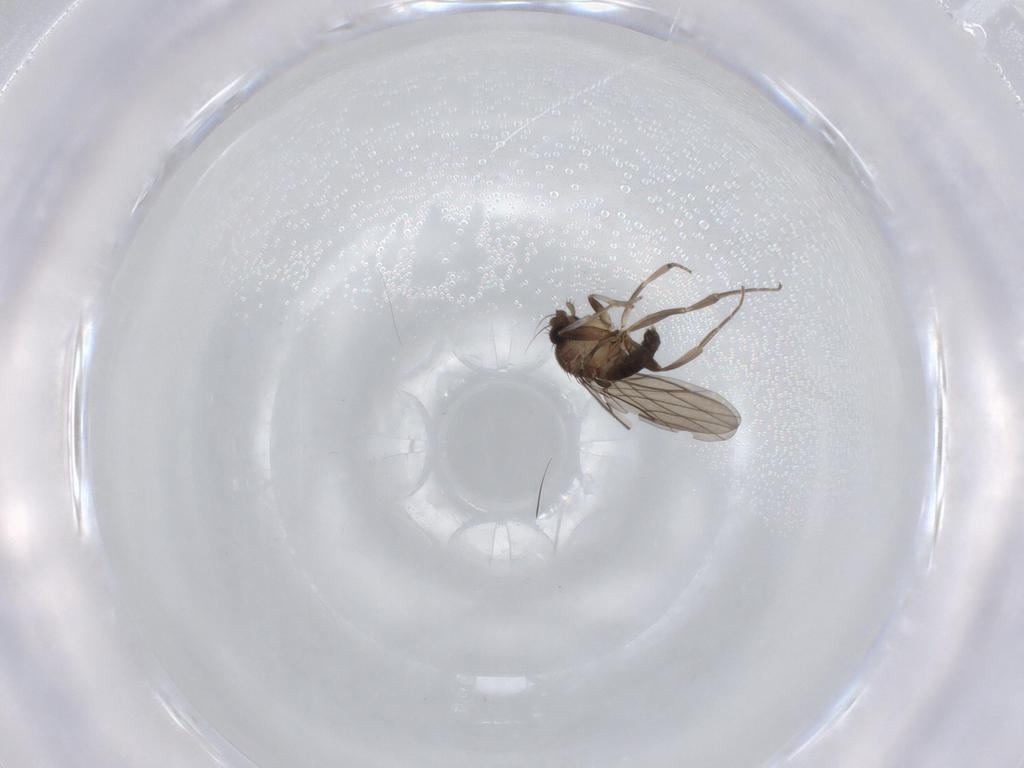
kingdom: Animalia
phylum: Arthropoda
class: Insecta
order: Diptera
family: Phoridae
